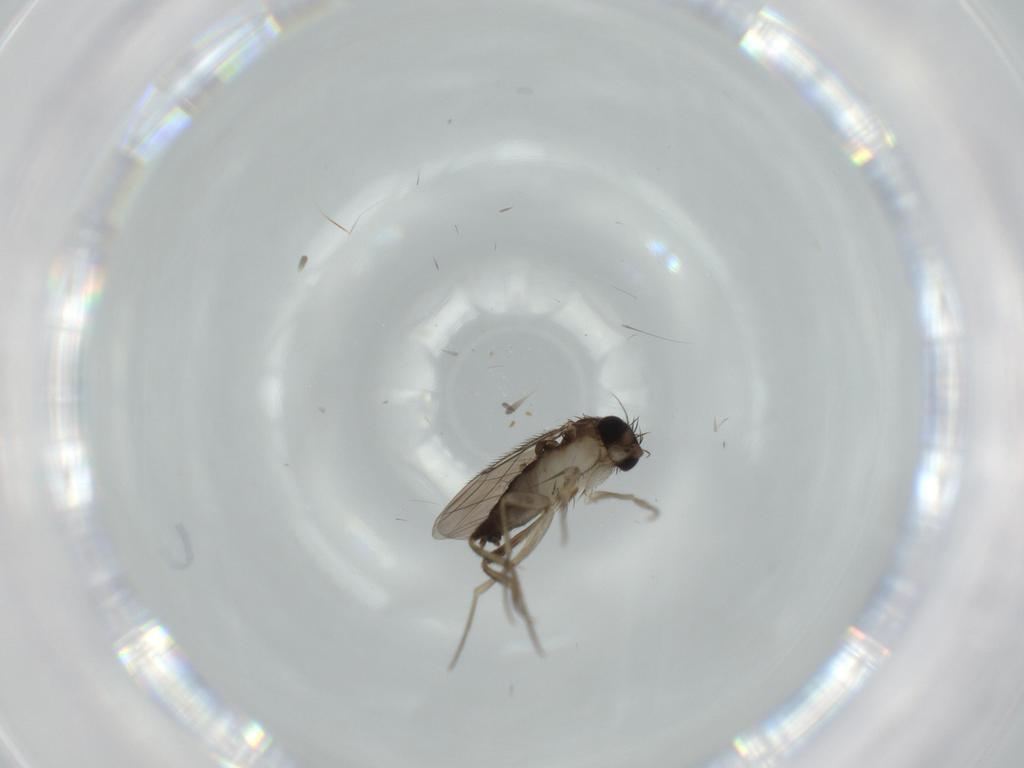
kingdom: Animalia
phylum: Arthropoda
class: Insecta
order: Diptera
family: Phoridae
